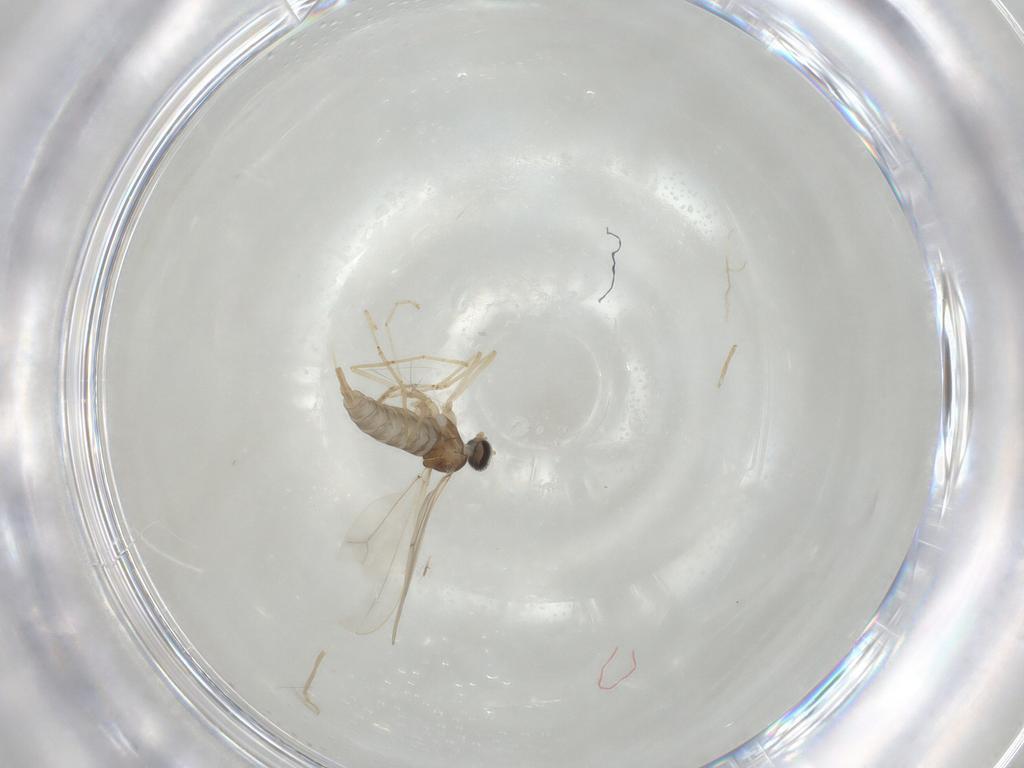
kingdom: Animalia
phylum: Arthropoda
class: Insecta
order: Diptera
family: Cecidomyiidae
